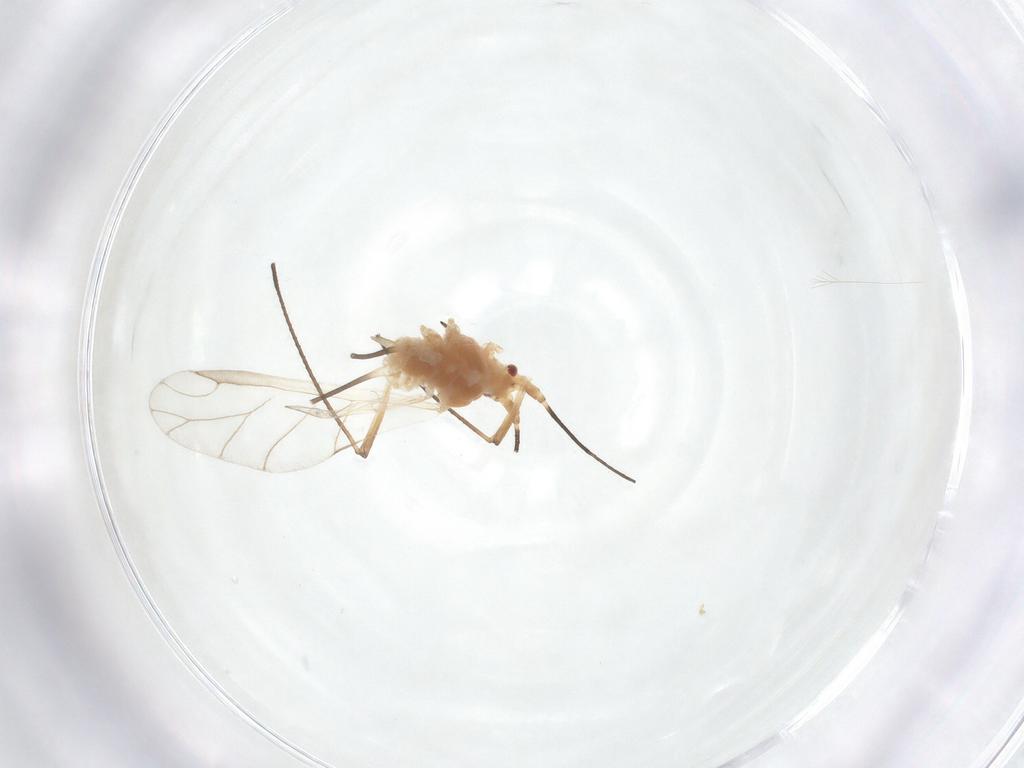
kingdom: Animalia
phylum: Arthropoda
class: Insecta
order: Hemiptera
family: Aphididae
